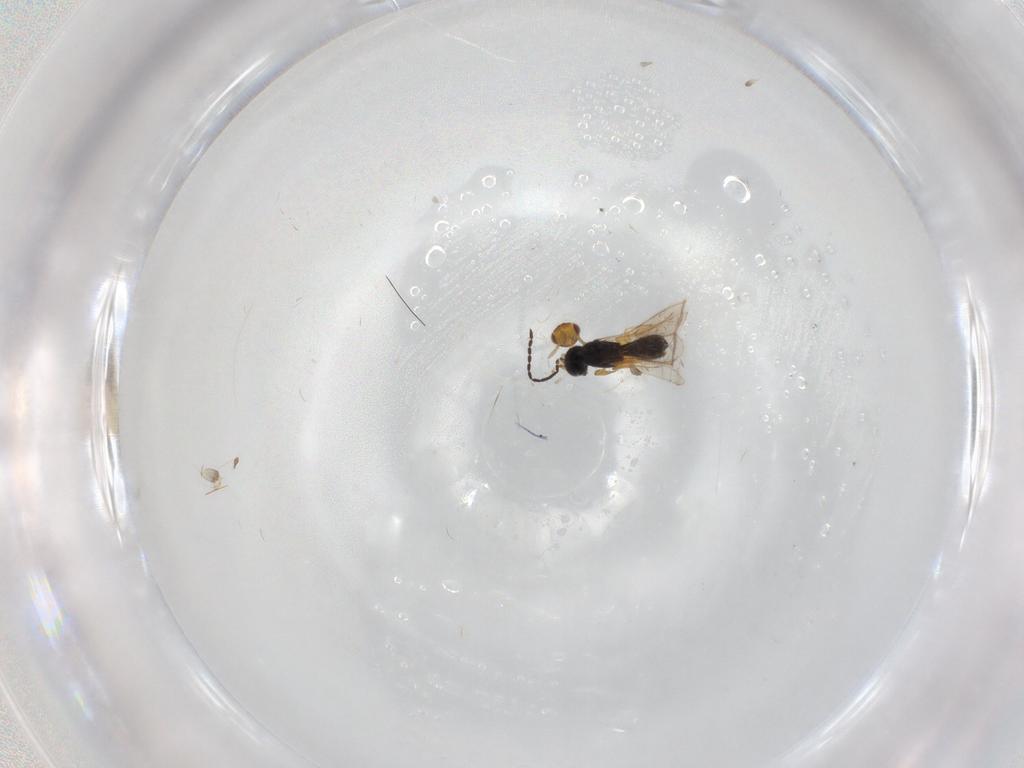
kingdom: Animalia
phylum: Arthropoda
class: Insecta
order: Hymenoptera
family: Scelionidae
